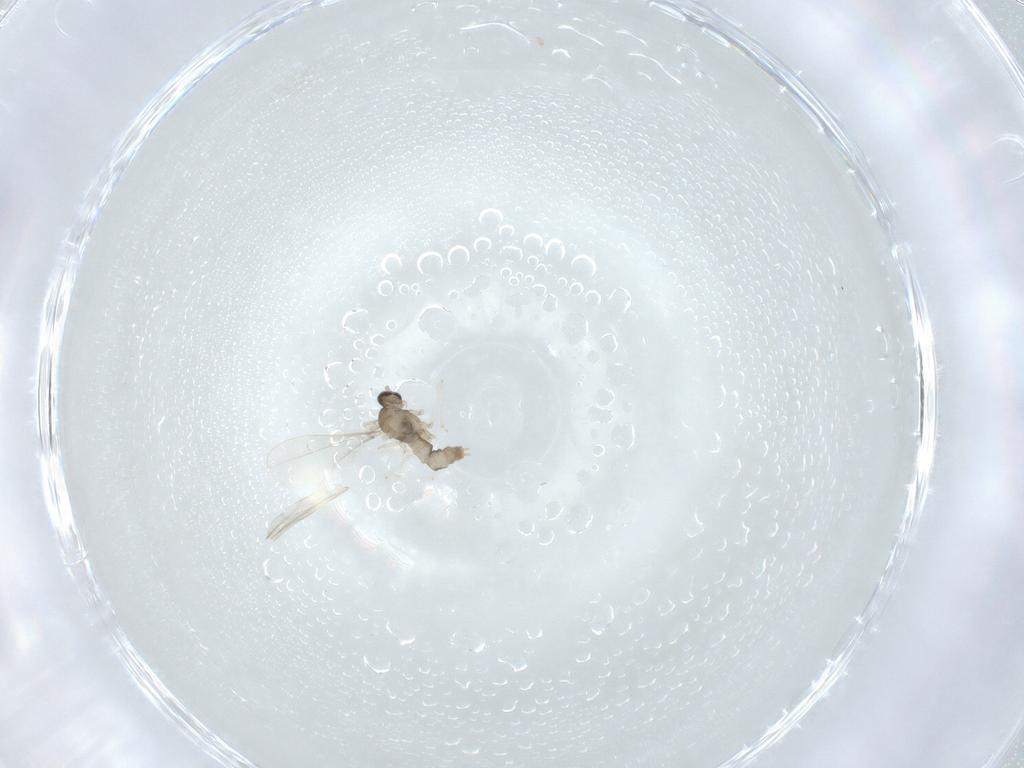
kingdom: Animalia
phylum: Arthropoda
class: Insecta
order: Diptera
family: Cecidomyiidae
